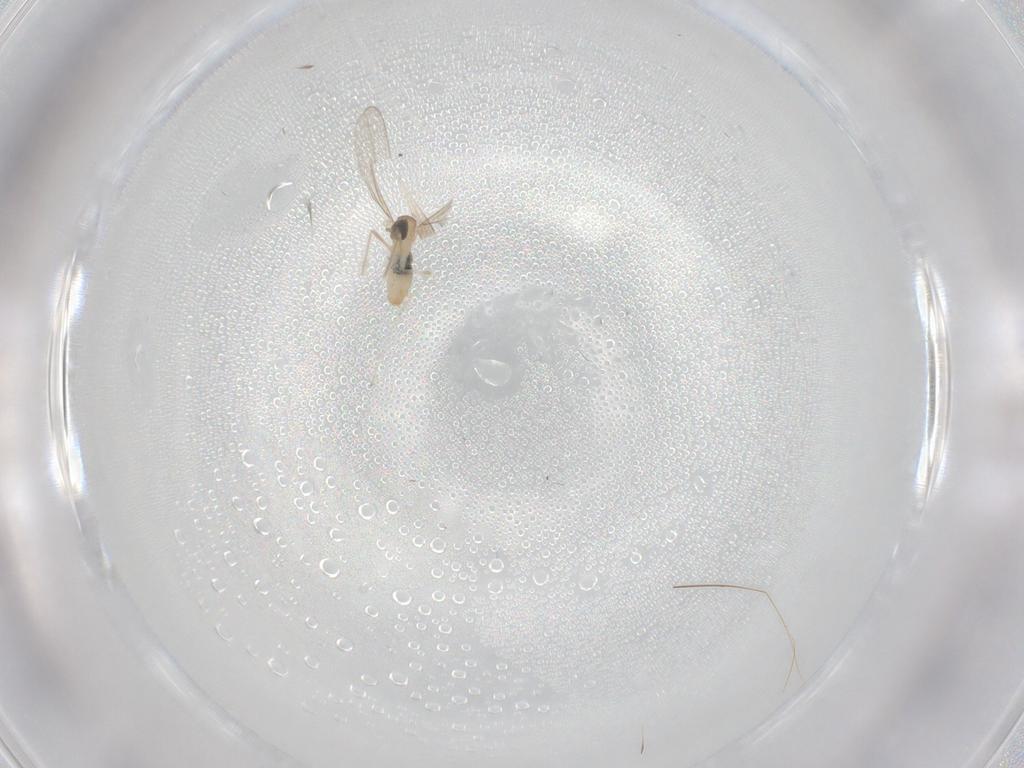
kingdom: Animalia
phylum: Arthropoda
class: Insecta
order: Diptera
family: Cecidomyiidae
